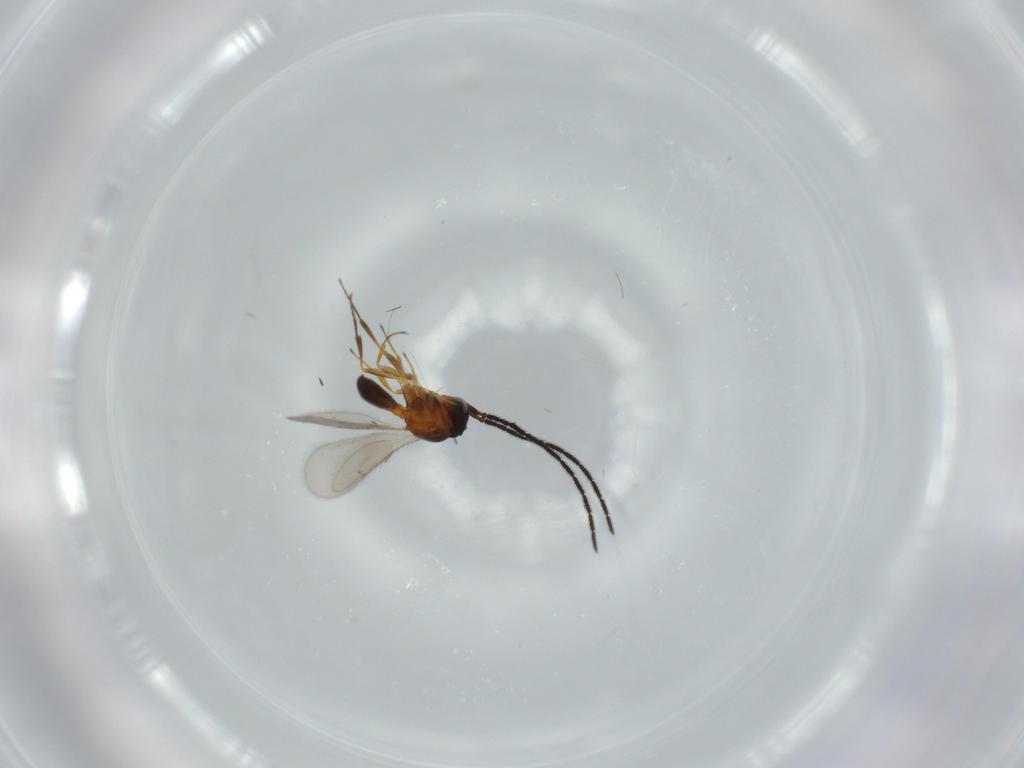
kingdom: Animalia
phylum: Arthropoda
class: Insecta
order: Hymenoptera
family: Scelionidae
